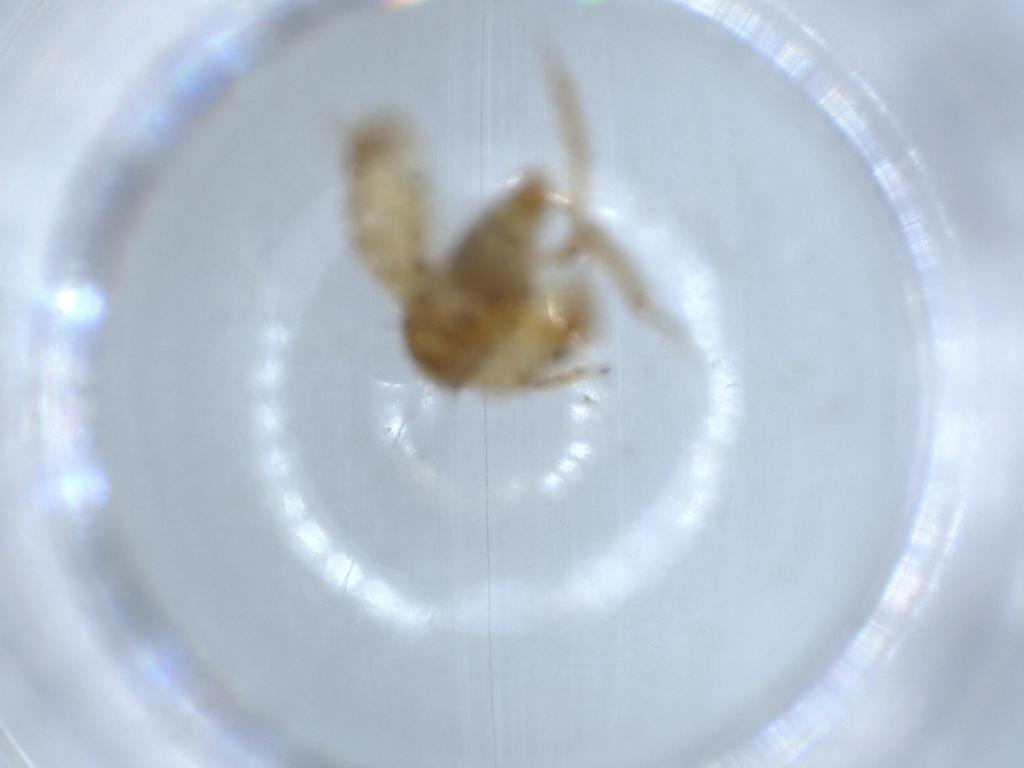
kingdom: Animalia
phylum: Arthropoda
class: Insecta
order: Hemiptera
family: Cicadellidae
